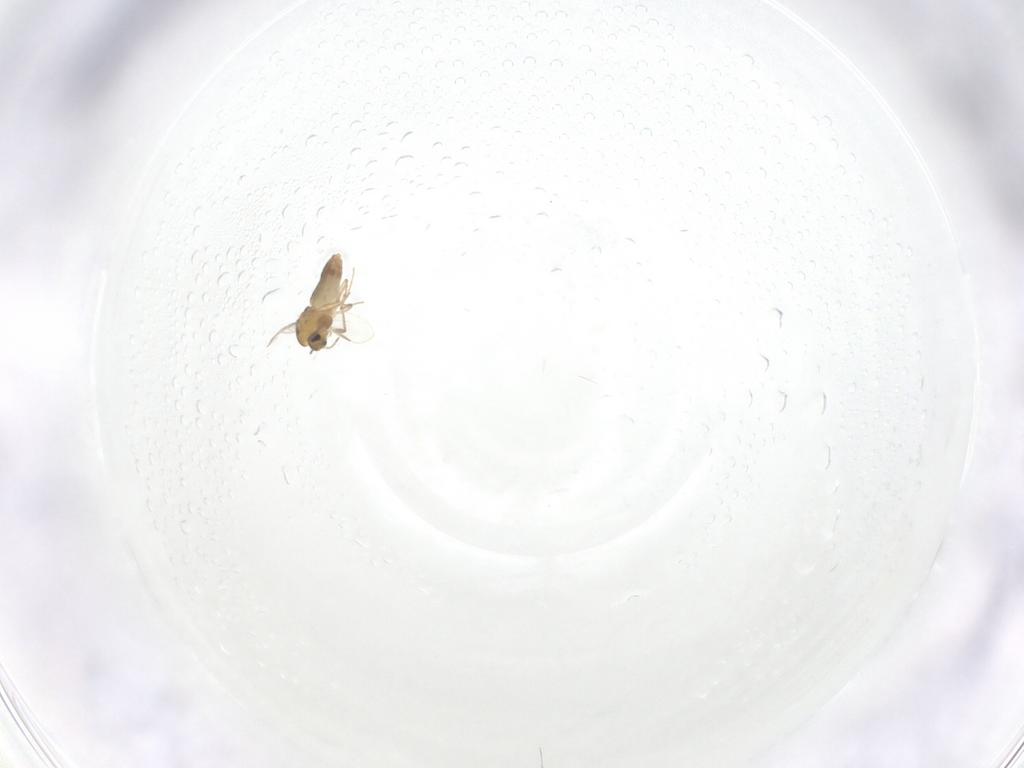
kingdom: Animalia
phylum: Arthropoda
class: Insecta
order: Diptera
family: Chironomidae
